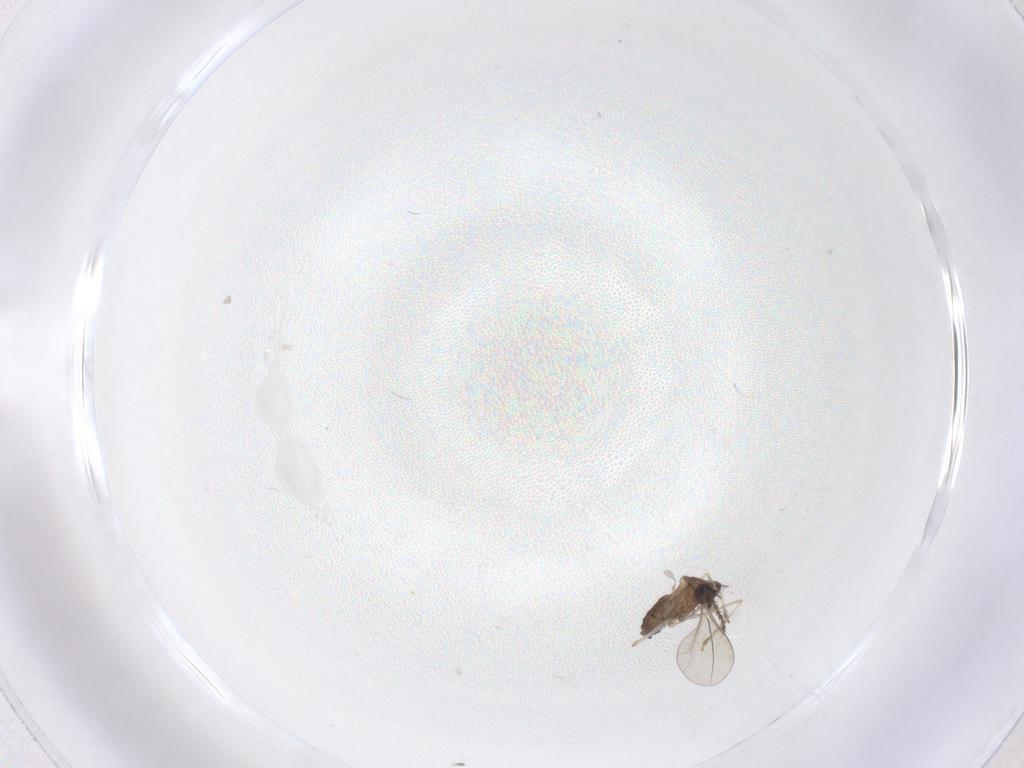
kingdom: Animalia
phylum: Arthropoda
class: Insecta
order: Diptera
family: Cecidomyiidae
